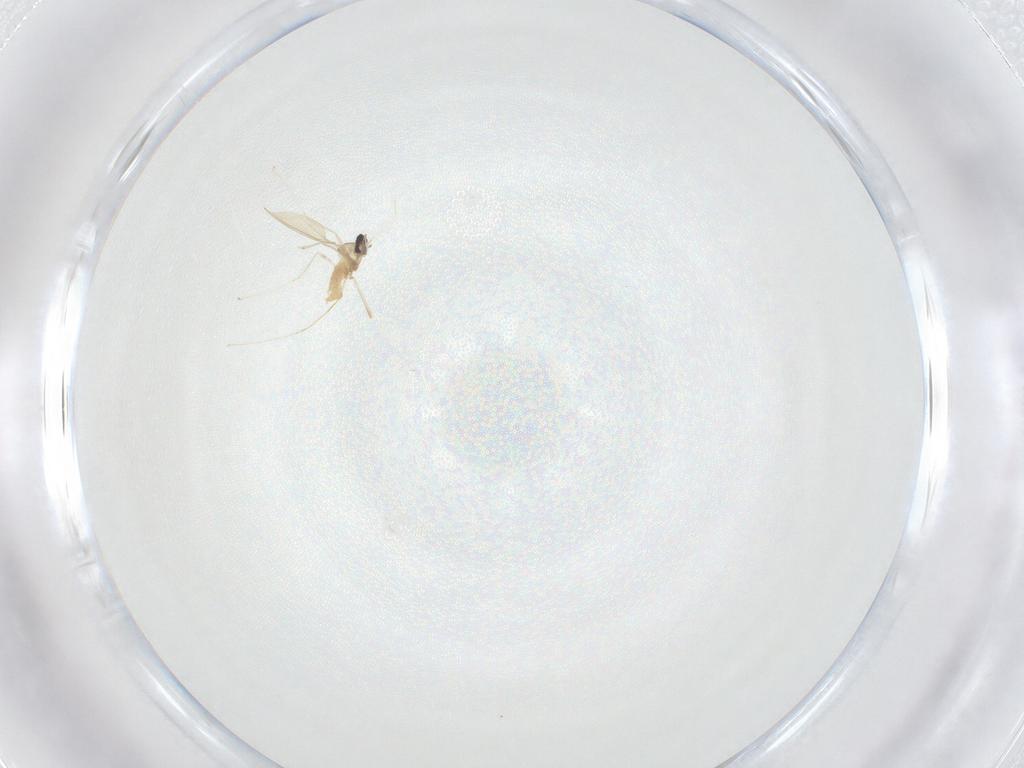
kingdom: Animalia
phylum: Arthropoda
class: Insecta
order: Diptera
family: Cecidomyiidae
